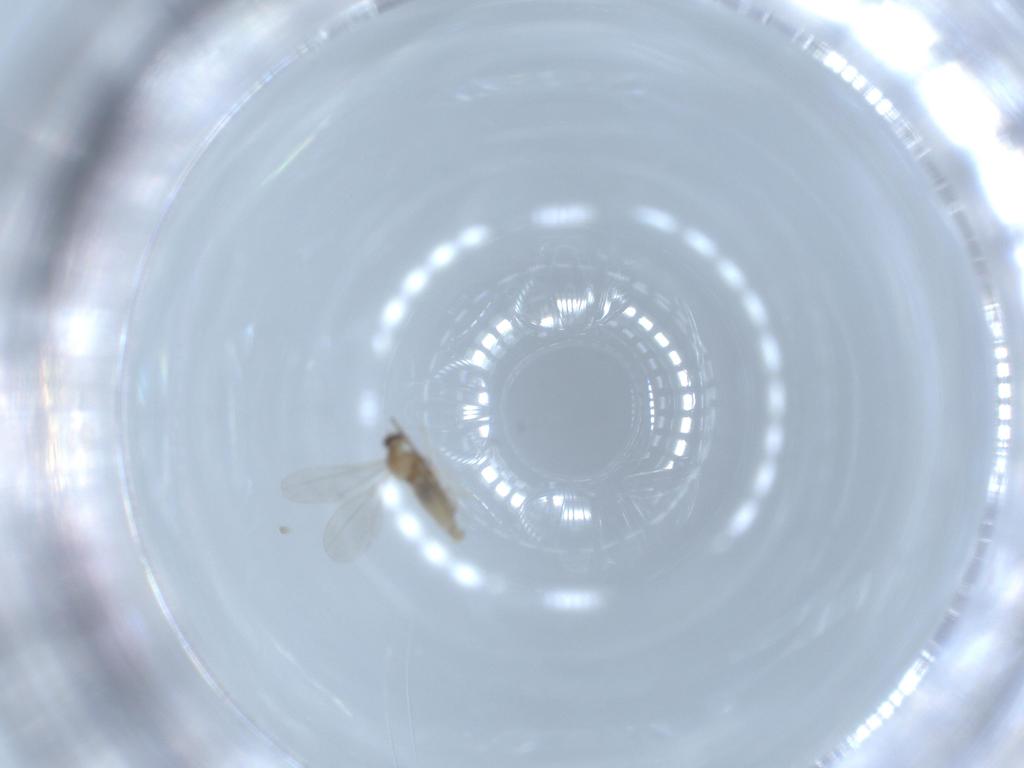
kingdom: Animalia
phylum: Arthropoda
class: Insecta
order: Diptera
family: Cecidomyiidae
